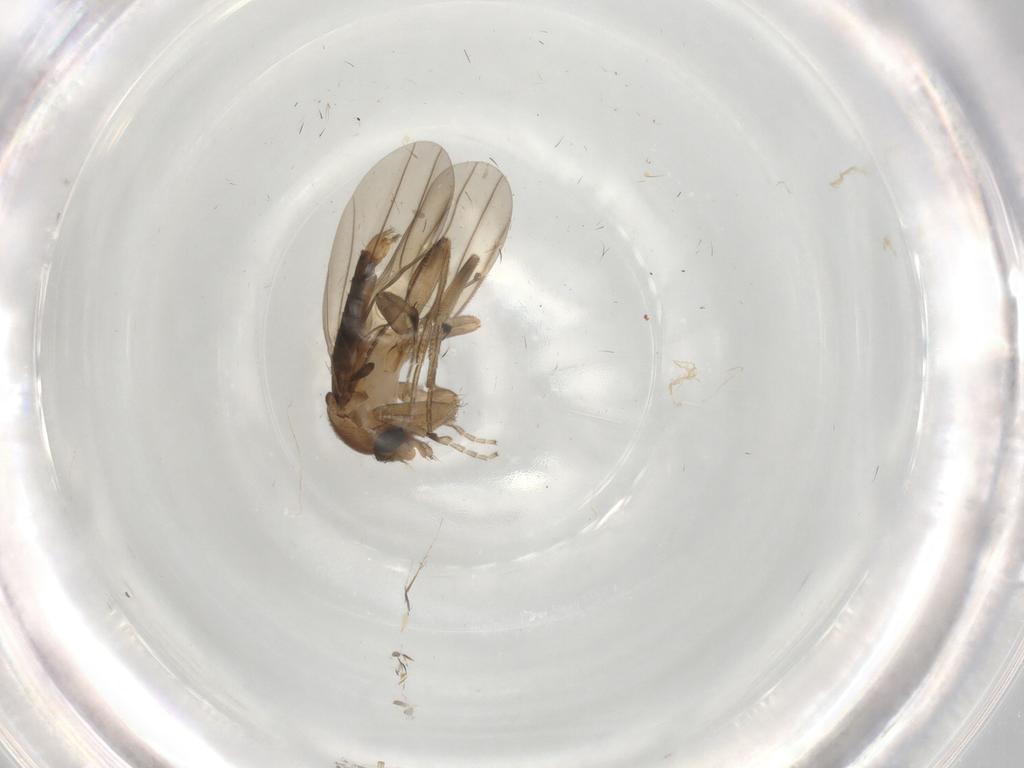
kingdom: Animalia
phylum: Arthropoda
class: Insecta
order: Diptera
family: Phoridae
